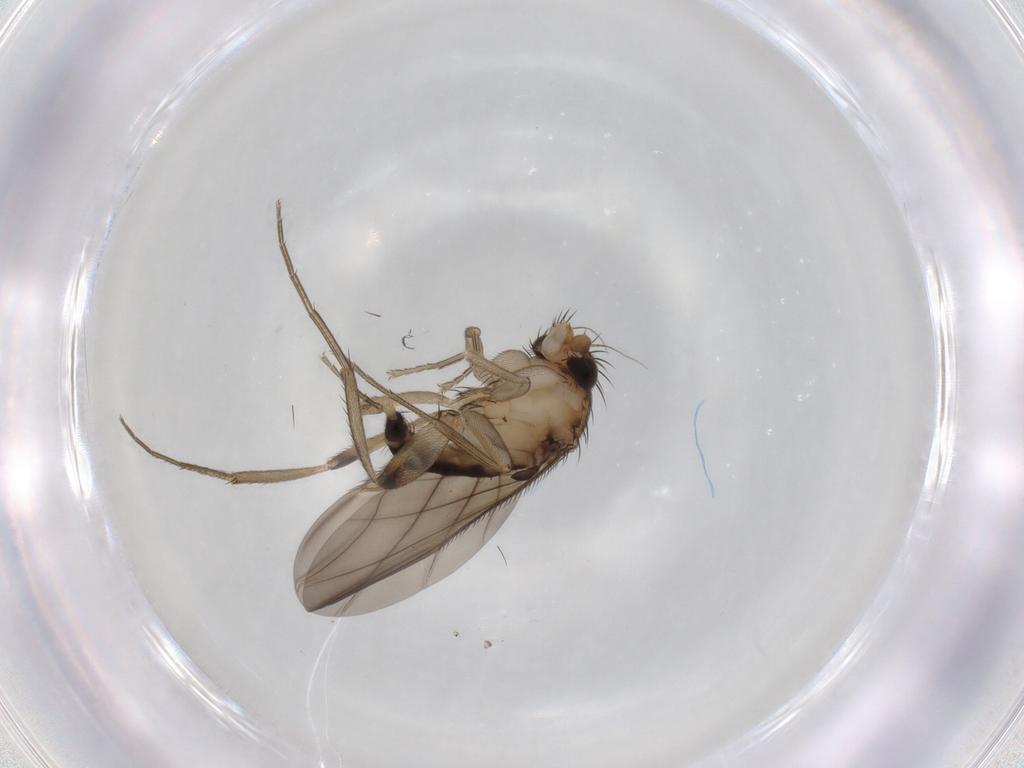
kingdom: Animalia
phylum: Arthropoda
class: Insecta
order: Diptera
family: Phoridae
